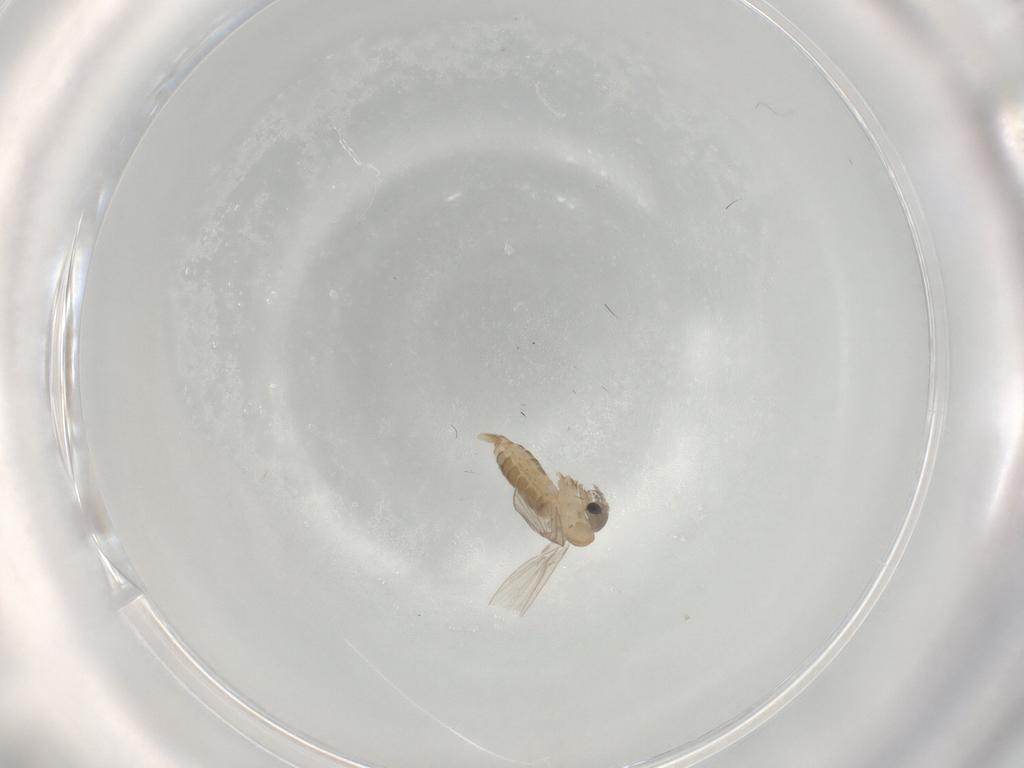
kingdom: Animalia
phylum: Arthropoda
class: Insecta
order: Diptera
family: Psychodidae
